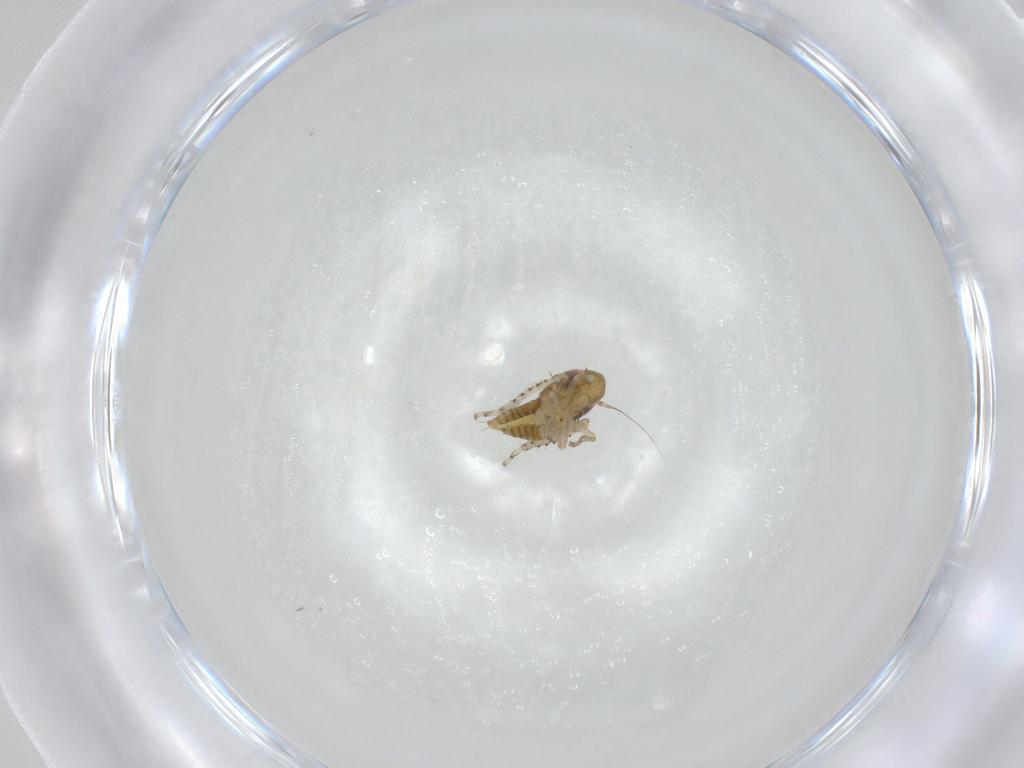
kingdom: Animalia
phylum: Arthropoda
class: Insecta
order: Hemiptera
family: Cicadellidae
